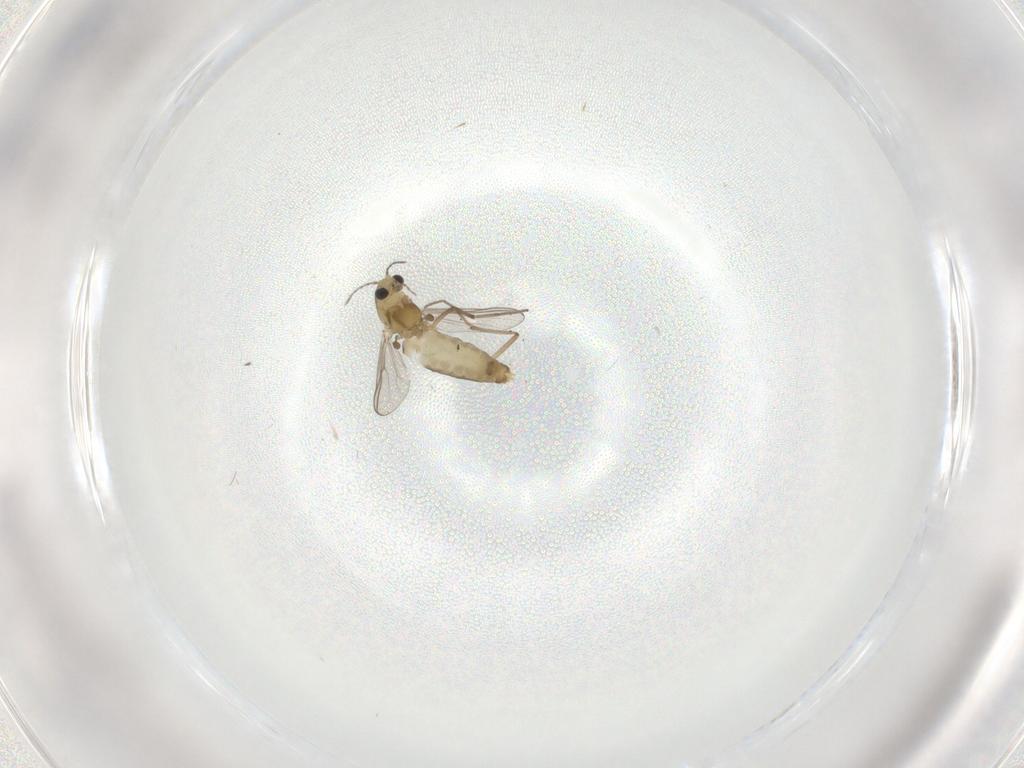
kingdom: Animalia
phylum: Arthropoda
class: Insecta
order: Diptera
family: Chironomidae
